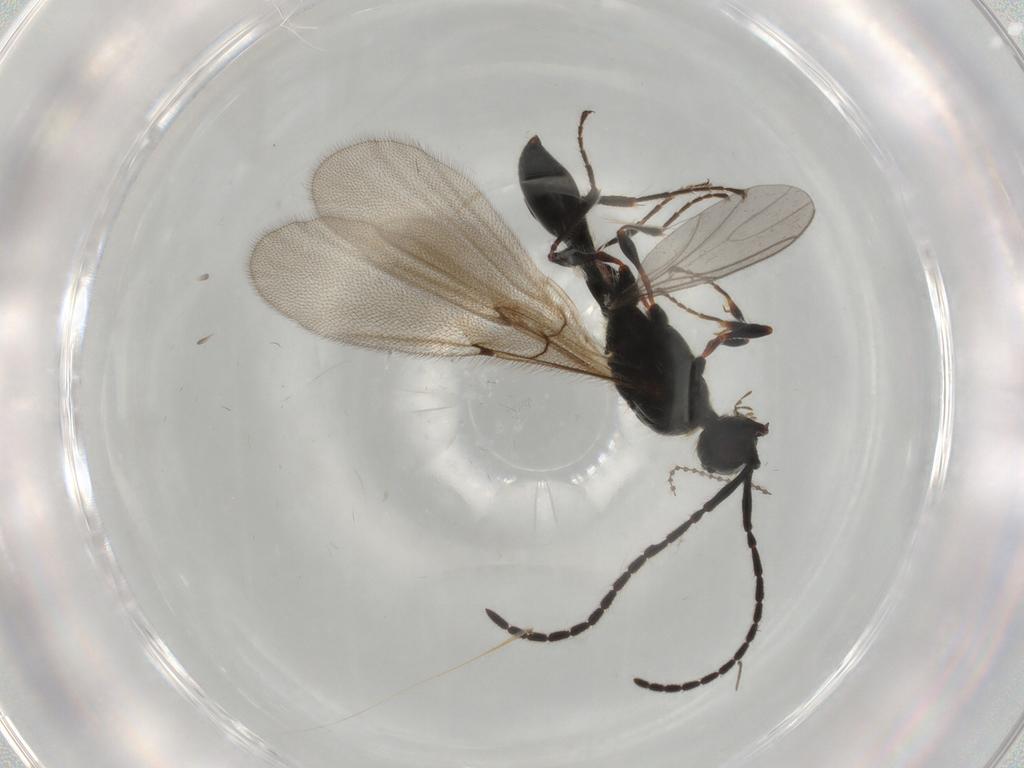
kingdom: Animalia
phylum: Arthropoda
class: Insecta
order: Hymenoptera
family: Diapriidae
